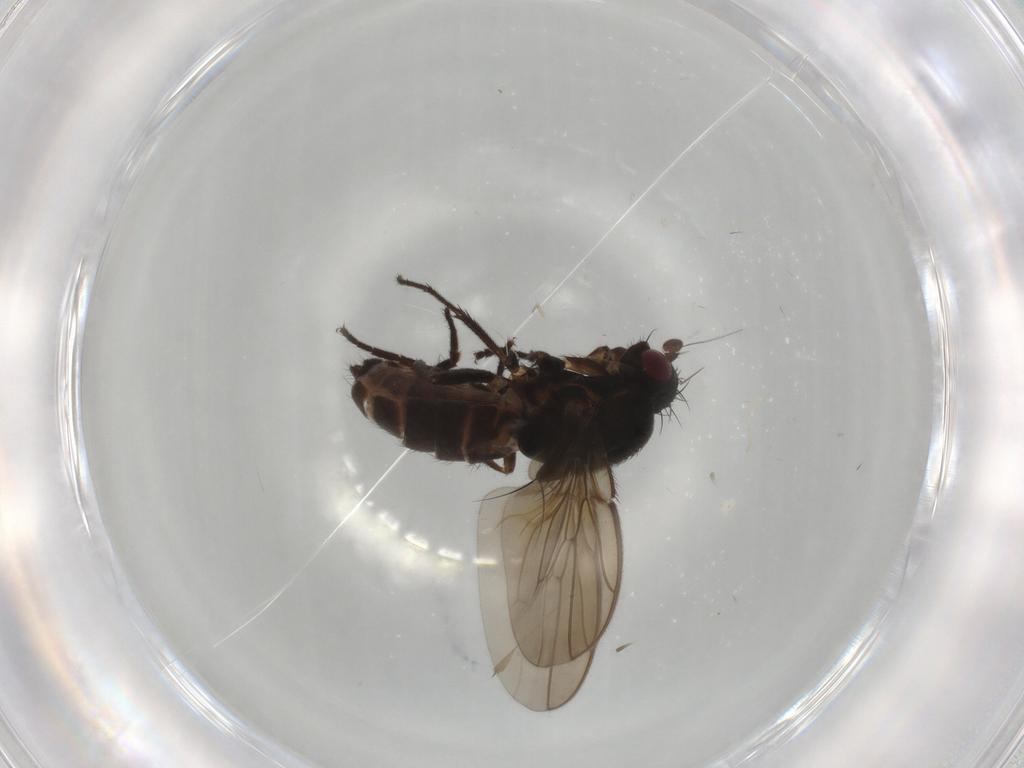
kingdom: Animalia
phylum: Arthropoda
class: Insecta
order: Diptera
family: Sphaeroceridae
